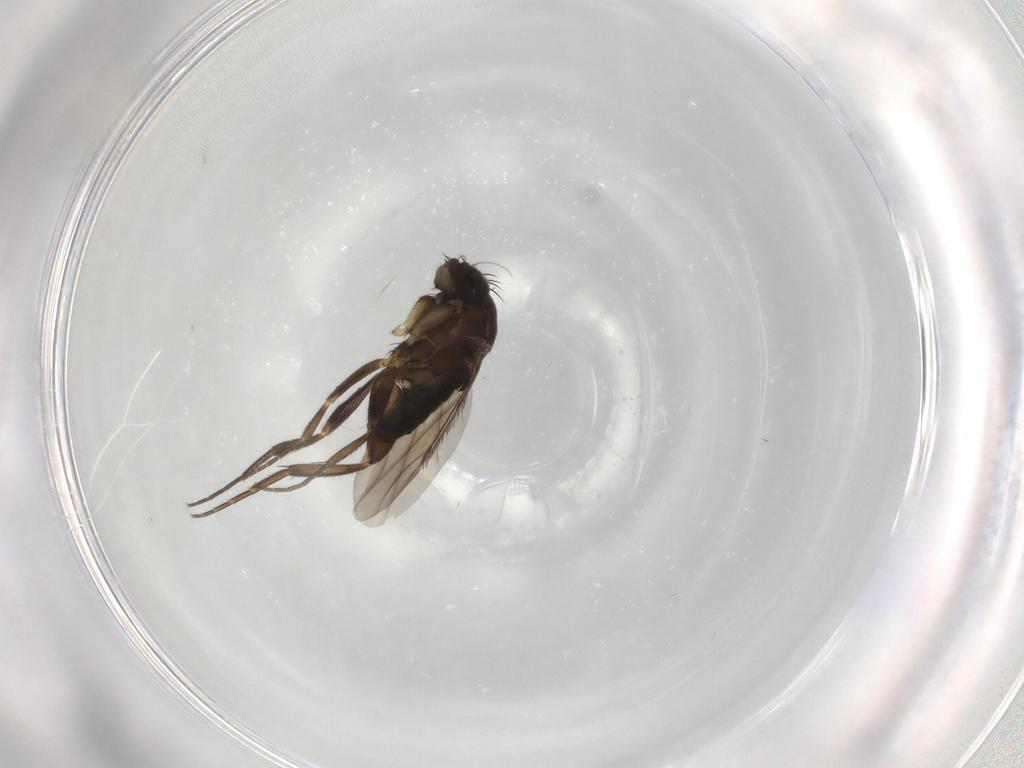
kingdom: Animalia
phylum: Arthropoda
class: Insecta
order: Diptera
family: Phoridae
